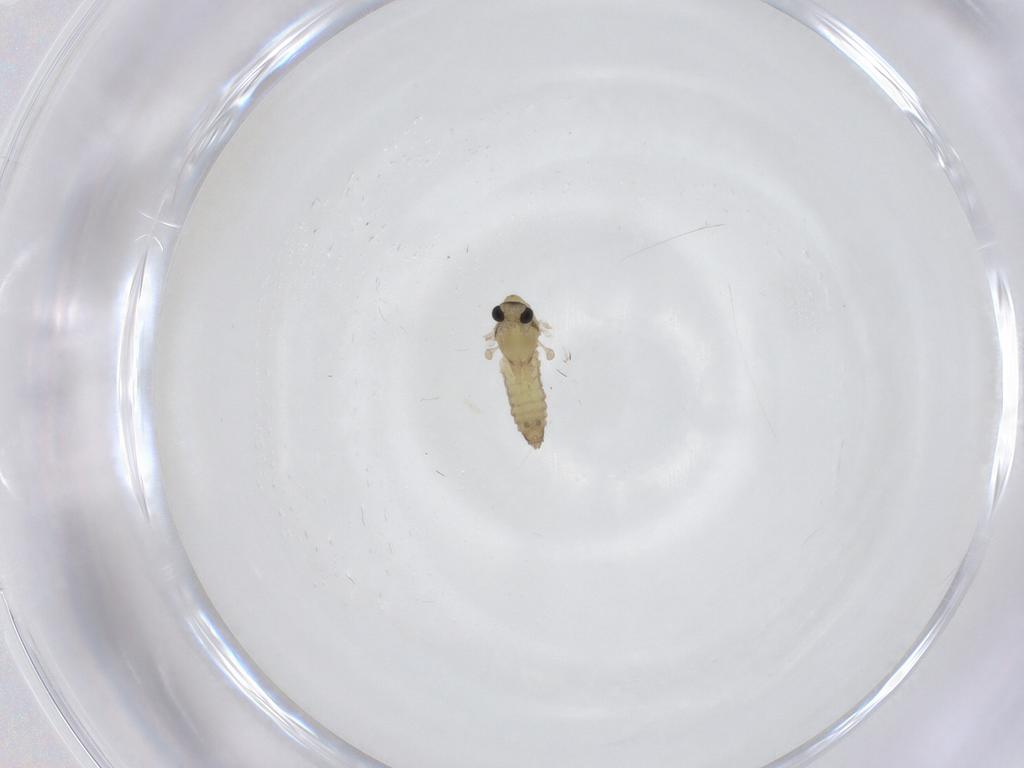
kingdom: Animalia
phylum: Arthropoda
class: Insecta
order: Diptera
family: Chironomidae
